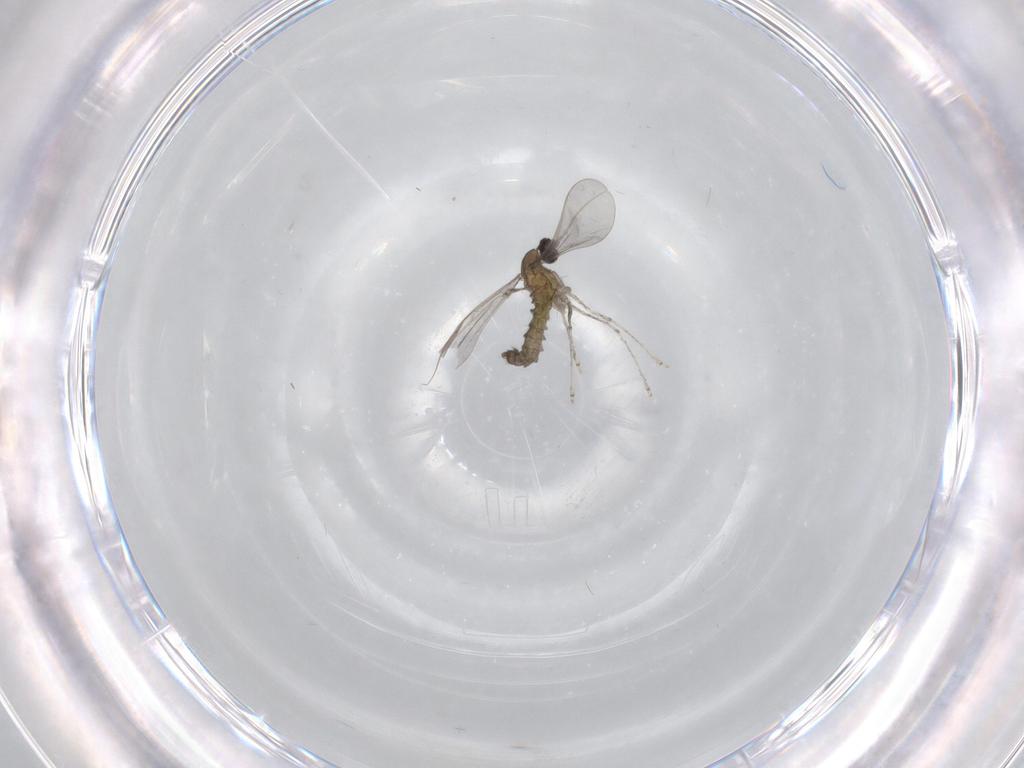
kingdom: Animalia
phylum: Arthropoda
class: Insecta
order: Diptera
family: Cecidomyiidae
